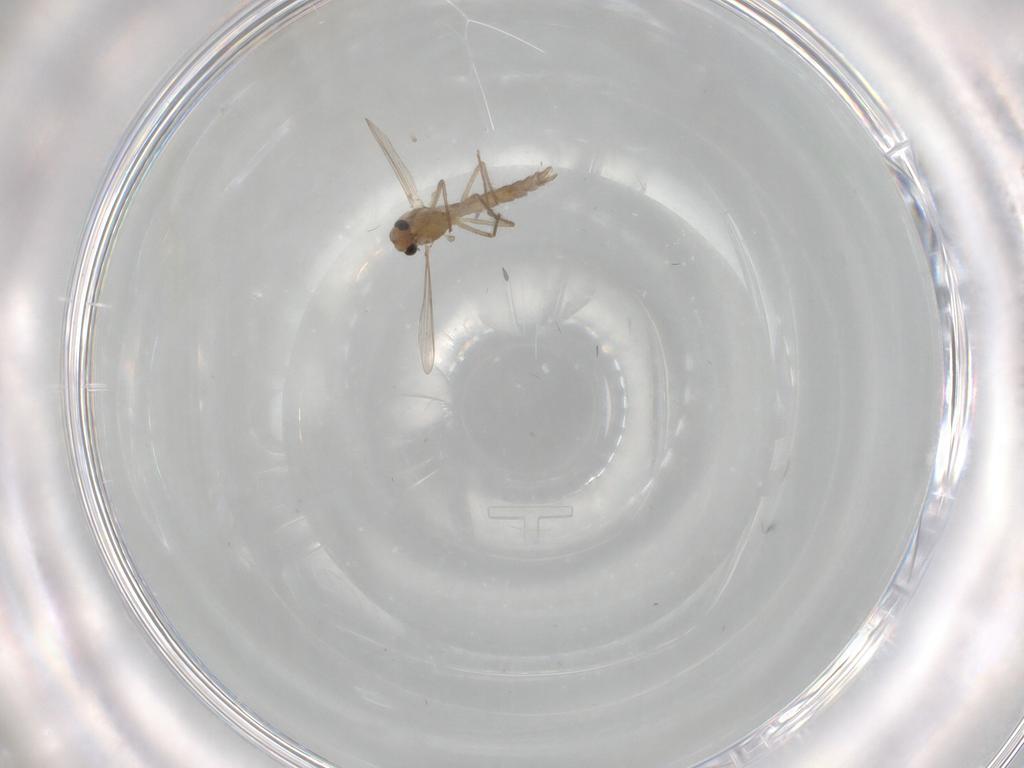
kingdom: Animalia
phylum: Arthropoda
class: Insecta
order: Diptera
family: Chironomidae
